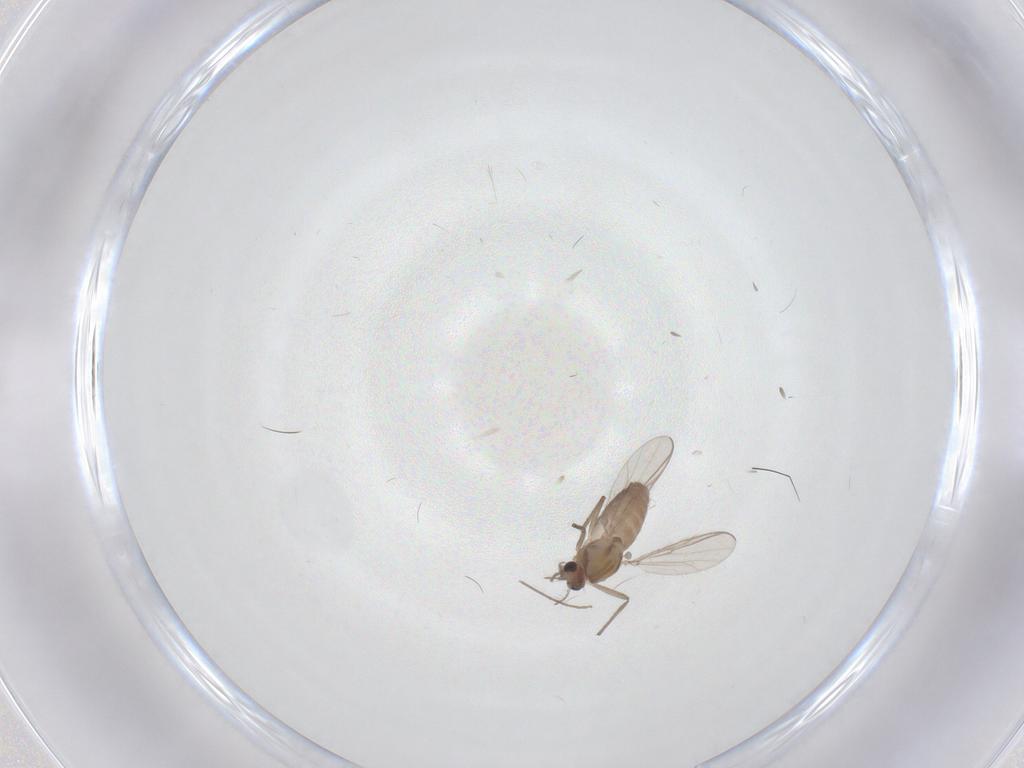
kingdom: Animalia
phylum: Arthropoda
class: Insecta
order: Diptera
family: Chironomidae
